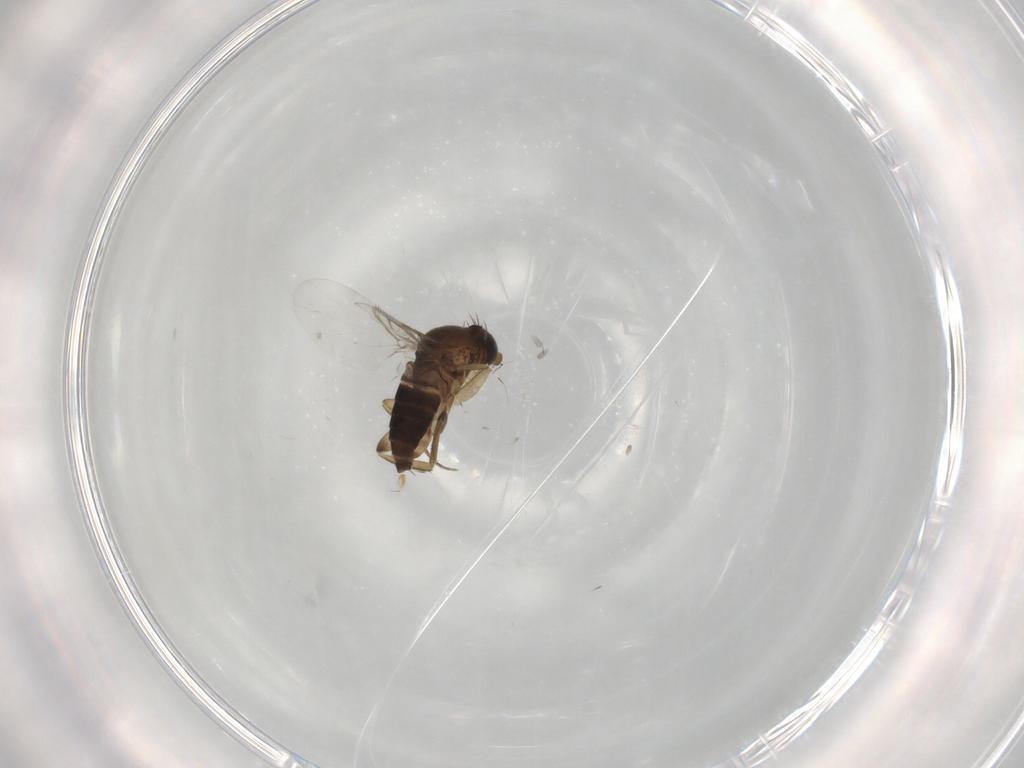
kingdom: Animalia
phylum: Arthropoda
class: Insecta
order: Diptera
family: Phoridae
